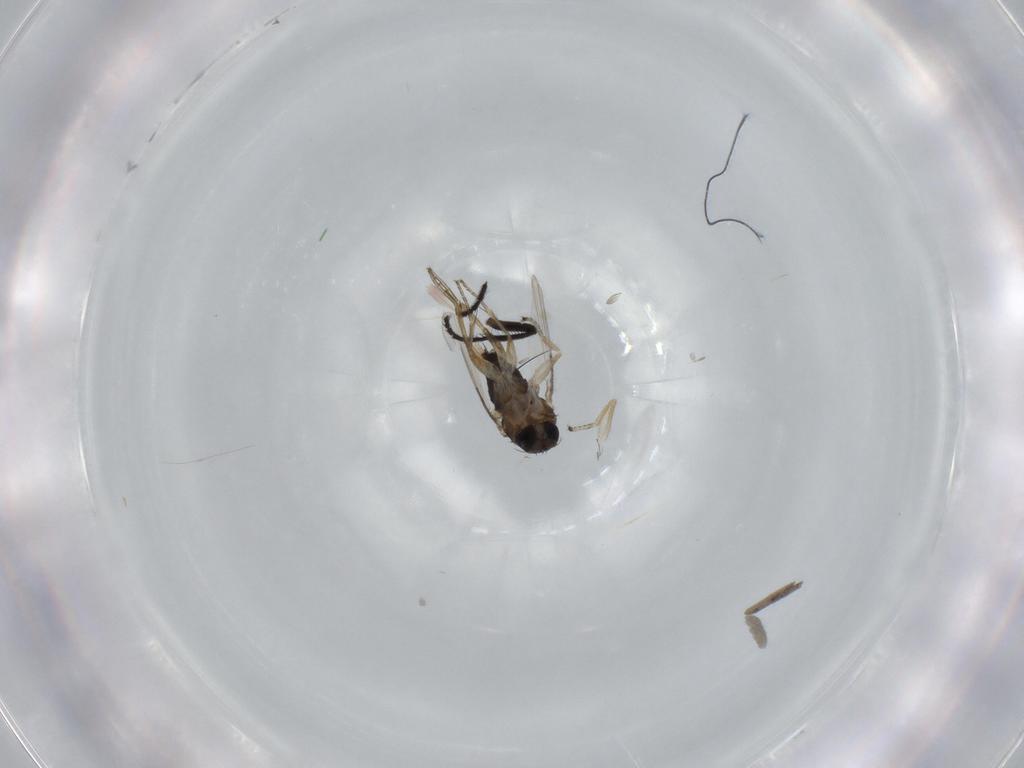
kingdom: Animalia
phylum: Arthropoda
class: Insecta
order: Diptera
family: Phoridae
